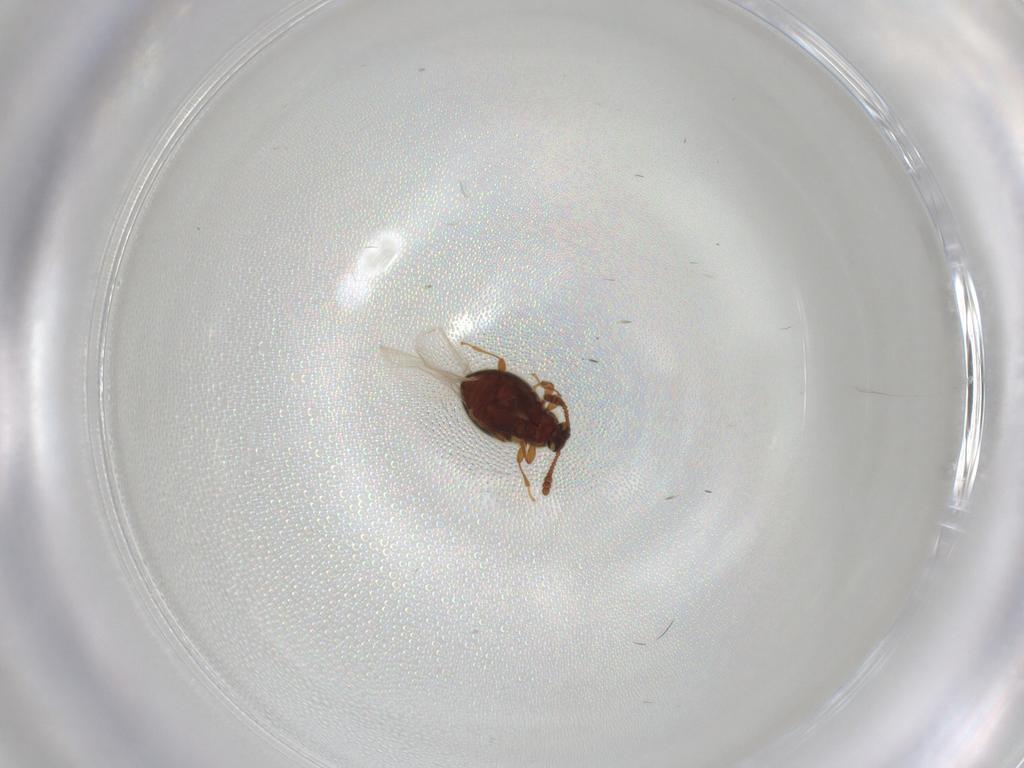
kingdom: Animalia
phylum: Arthropoda
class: Insecta
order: Coleoptera
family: Staphylinidae
